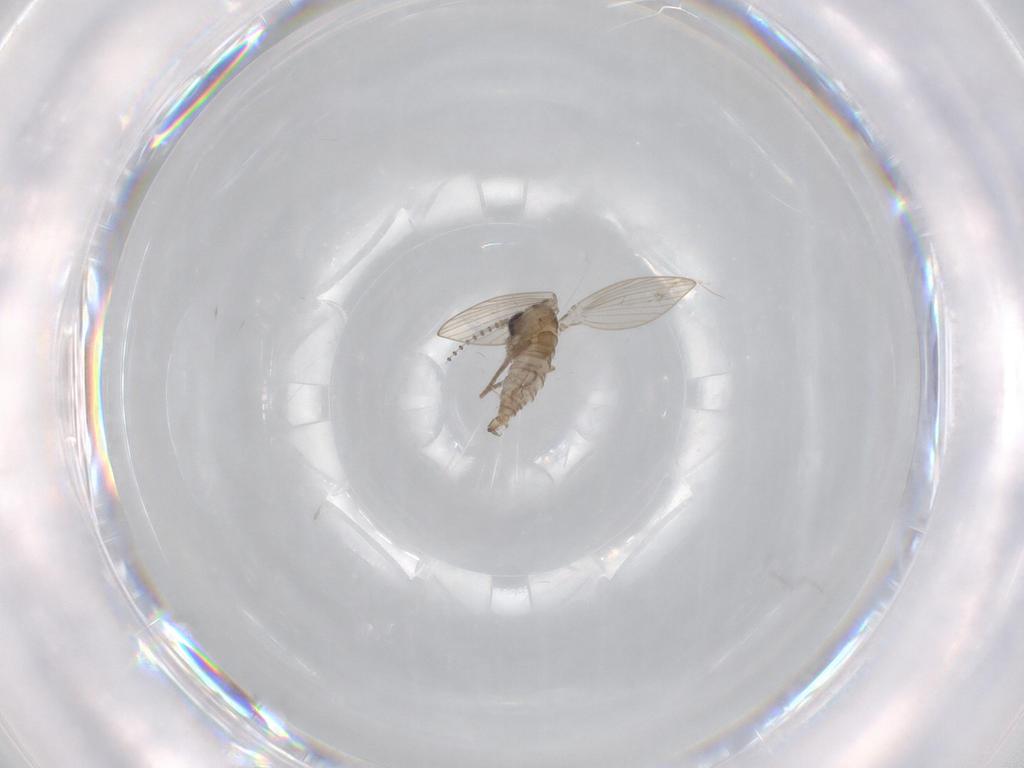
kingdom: Animalia
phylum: Arthropoda
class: Insecta
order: Diptera
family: Psychodidae
